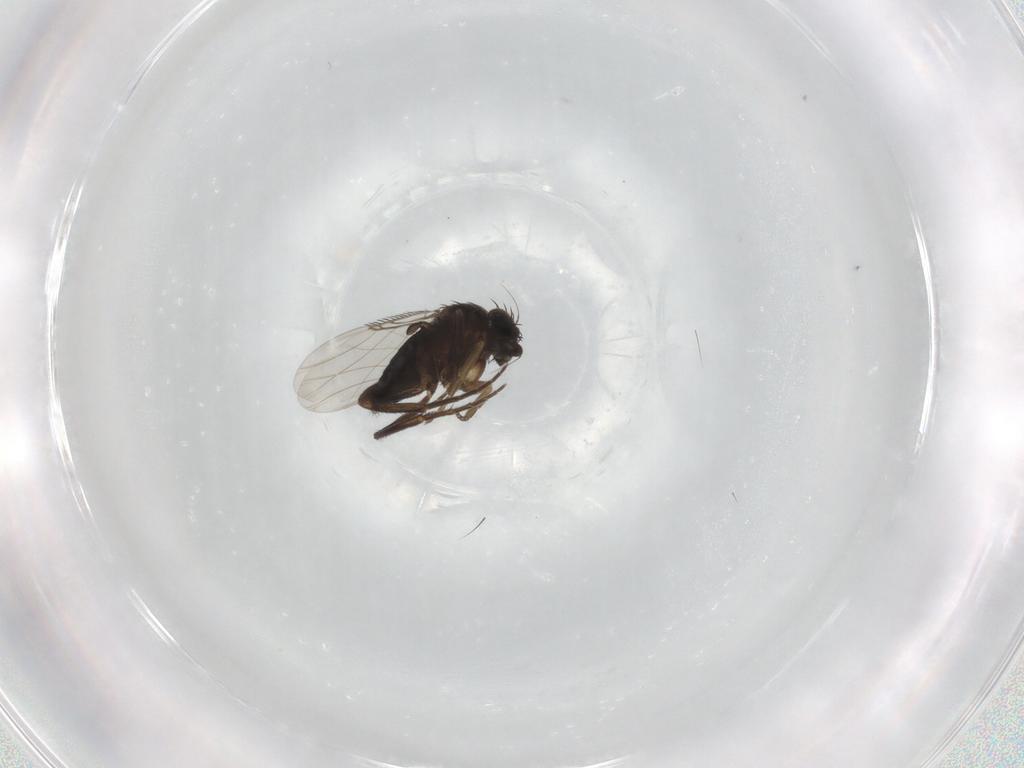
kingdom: Animalia
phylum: Arthropoda
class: Insecta
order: Diptera
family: Phoridae
